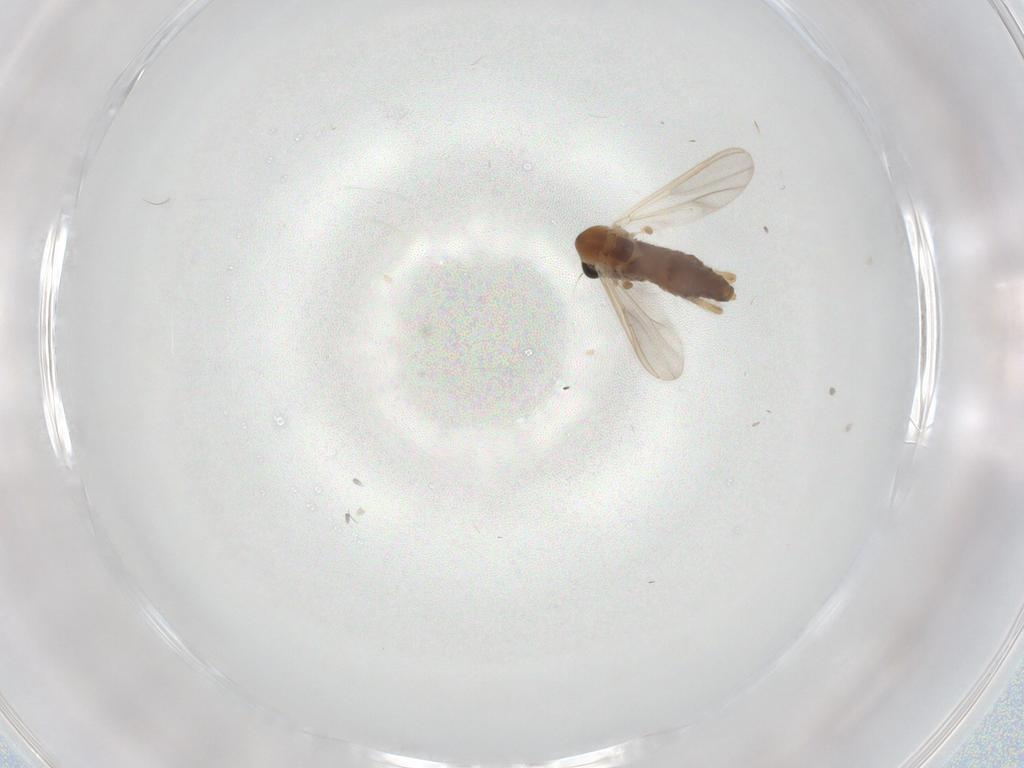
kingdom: Animalia
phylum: Arthropoda
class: Insecta
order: Diptera
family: Chironomidae
